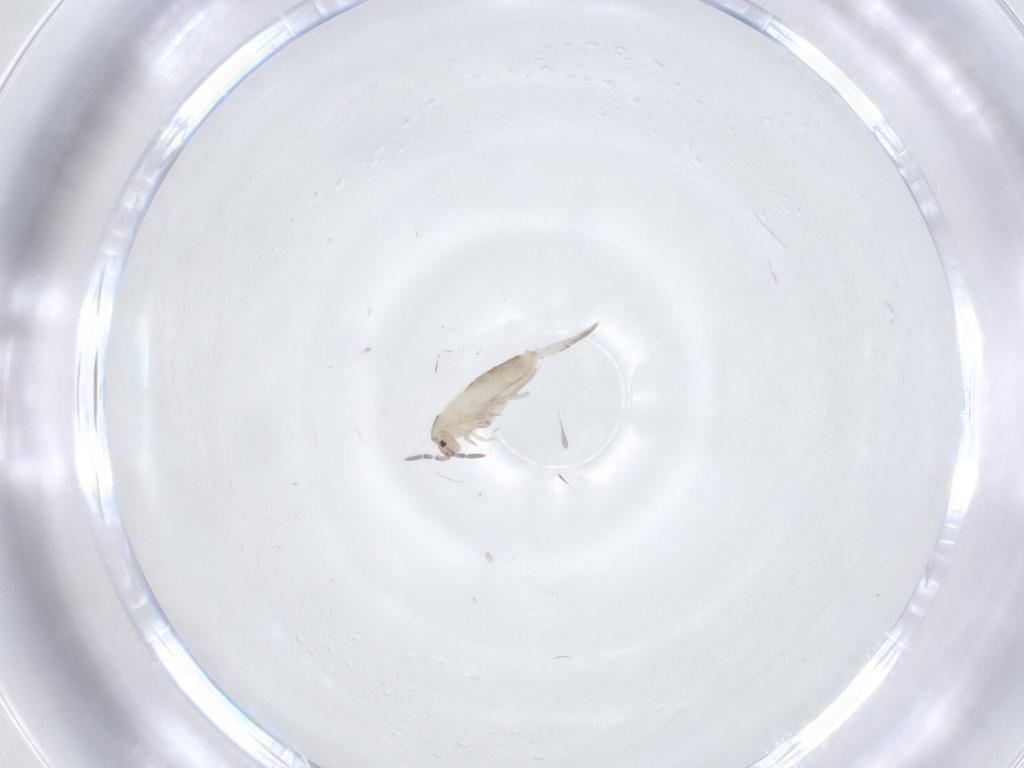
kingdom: Animalia
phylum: Arthropoda
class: Collembola
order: Entomobryomorpha
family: Entomobryidae
